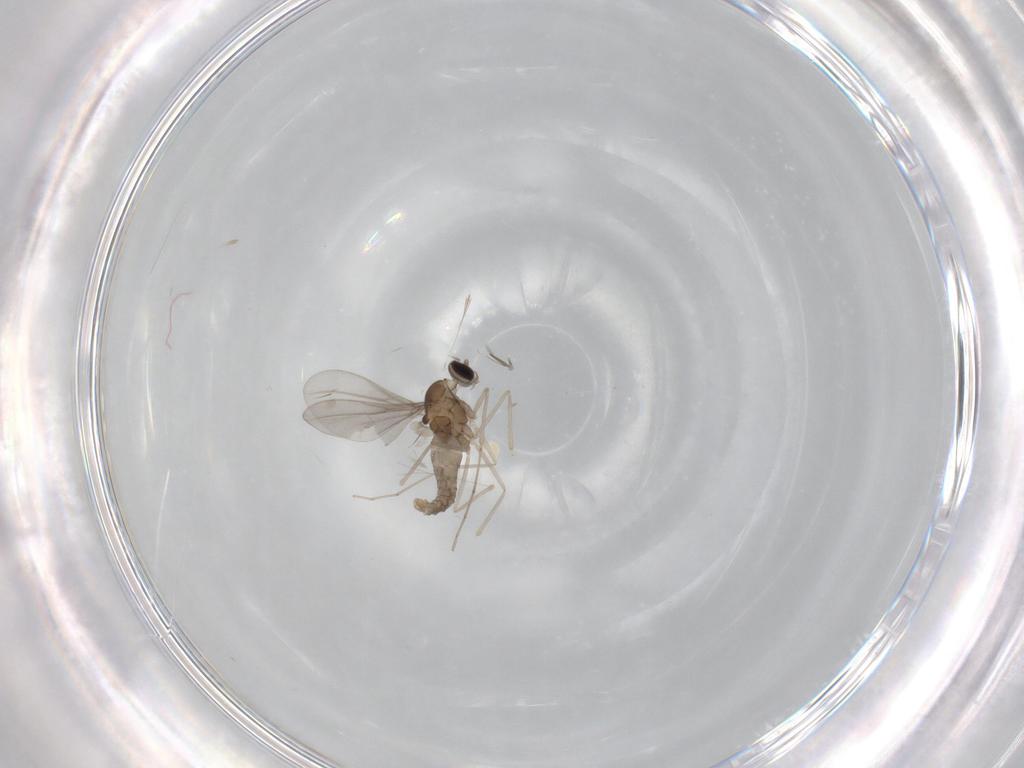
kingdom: Animalia
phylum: Arthropoda
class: Insecta
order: Diptera
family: Cecidomyiidae
